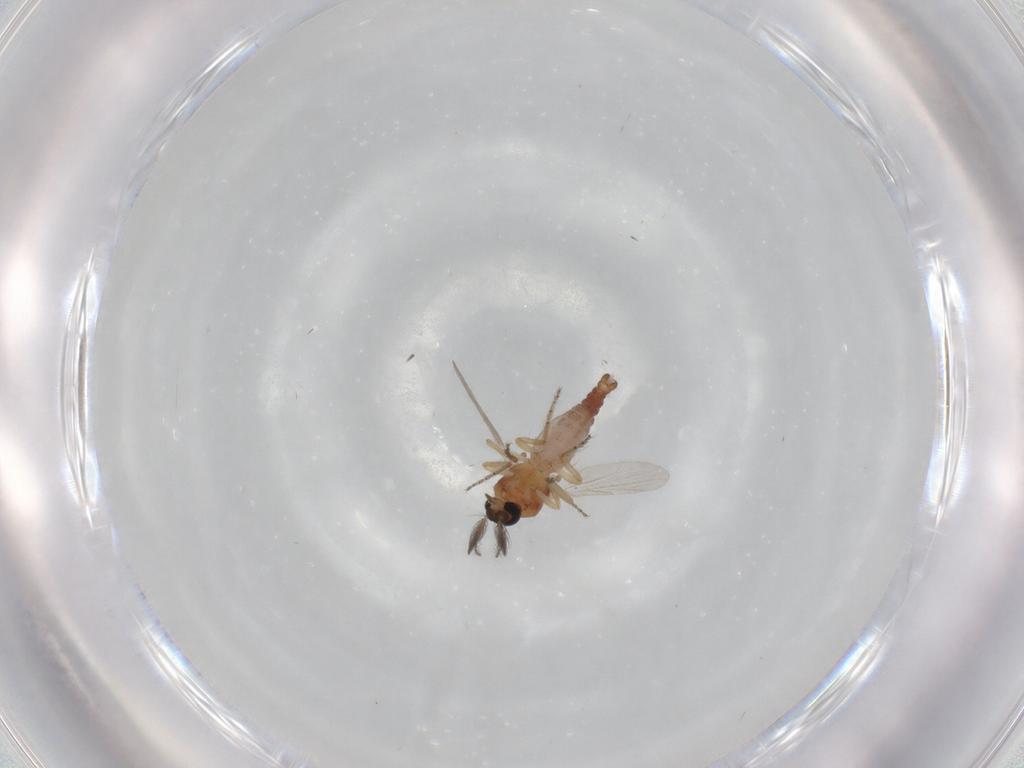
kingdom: Animalia
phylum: Arthropoda
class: Insecta
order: Diptera
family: Ceratopogonidae
